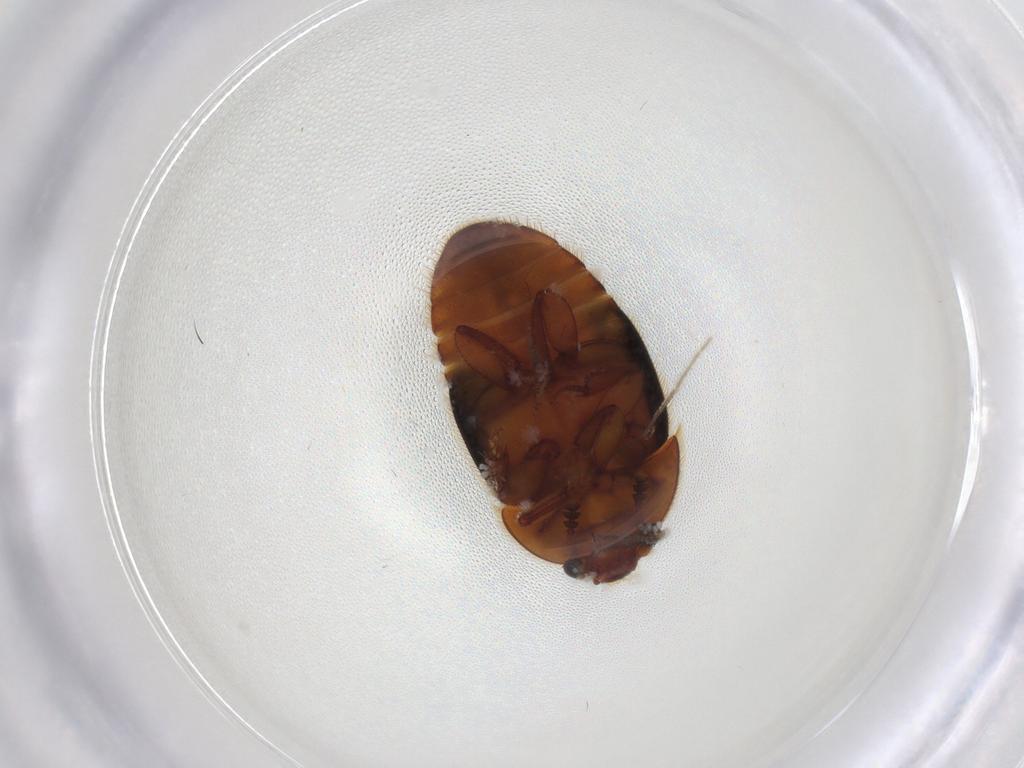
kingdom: Animalia
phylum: Arthropoda
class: Insecta
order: Coleoptera
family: Nitidulidae
